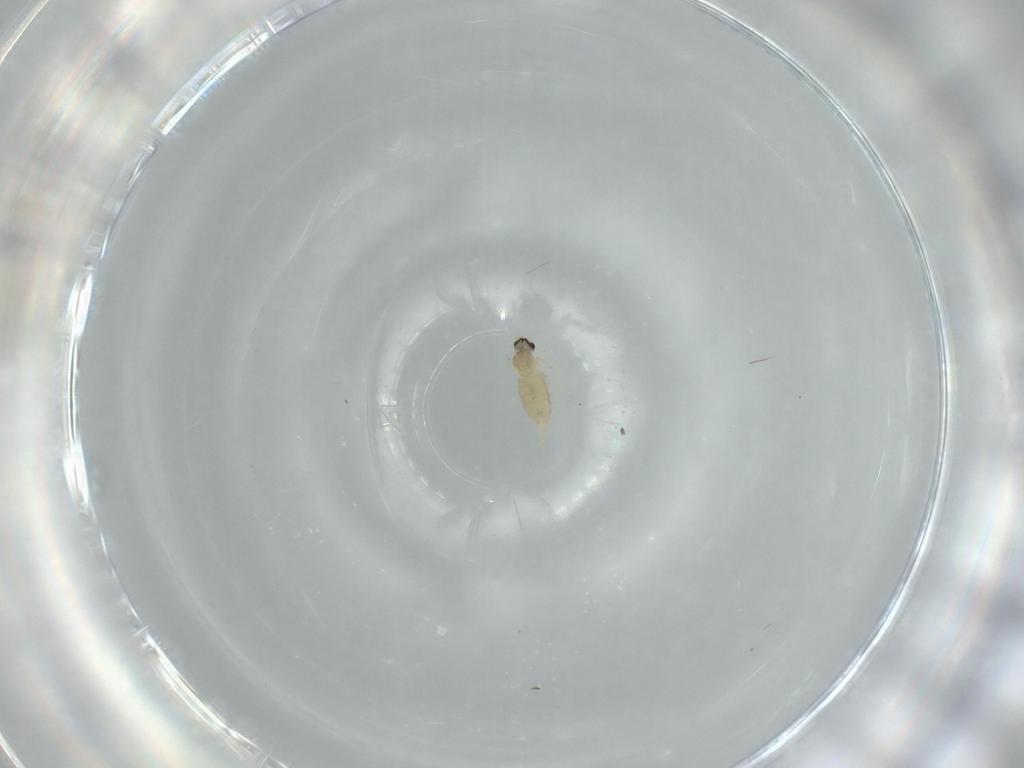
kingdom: Animalia
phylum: Arthropoda
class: Insecta
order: Diptera
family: Cecidomyiidae
